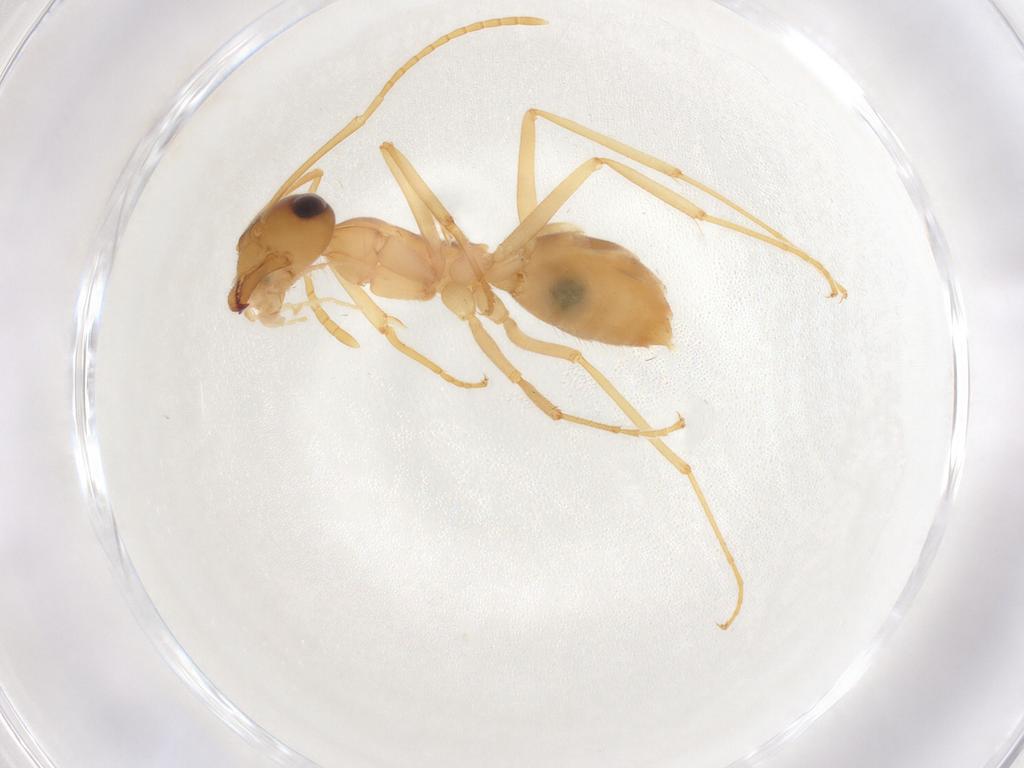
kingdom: Animalia
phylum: Arthropoda
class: Insecta
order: Hymenoptera
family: Formicidae
